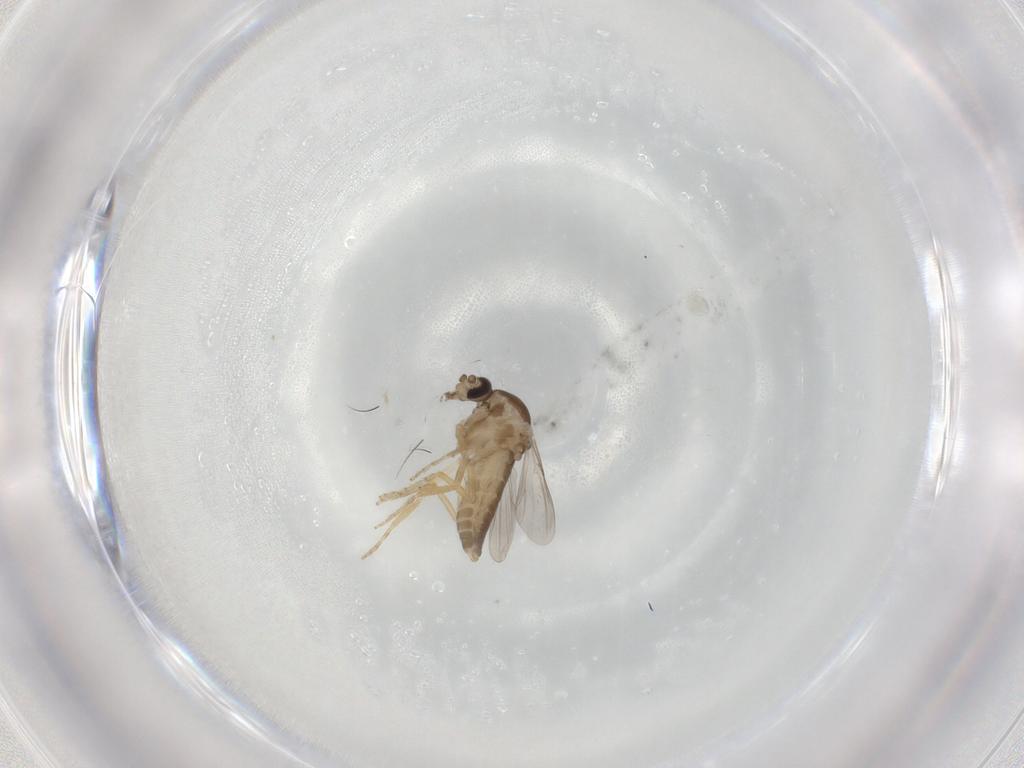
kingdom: Animalia
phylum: Arthropoda
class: Insecta
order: Diptera
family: Ceratopogonidae
